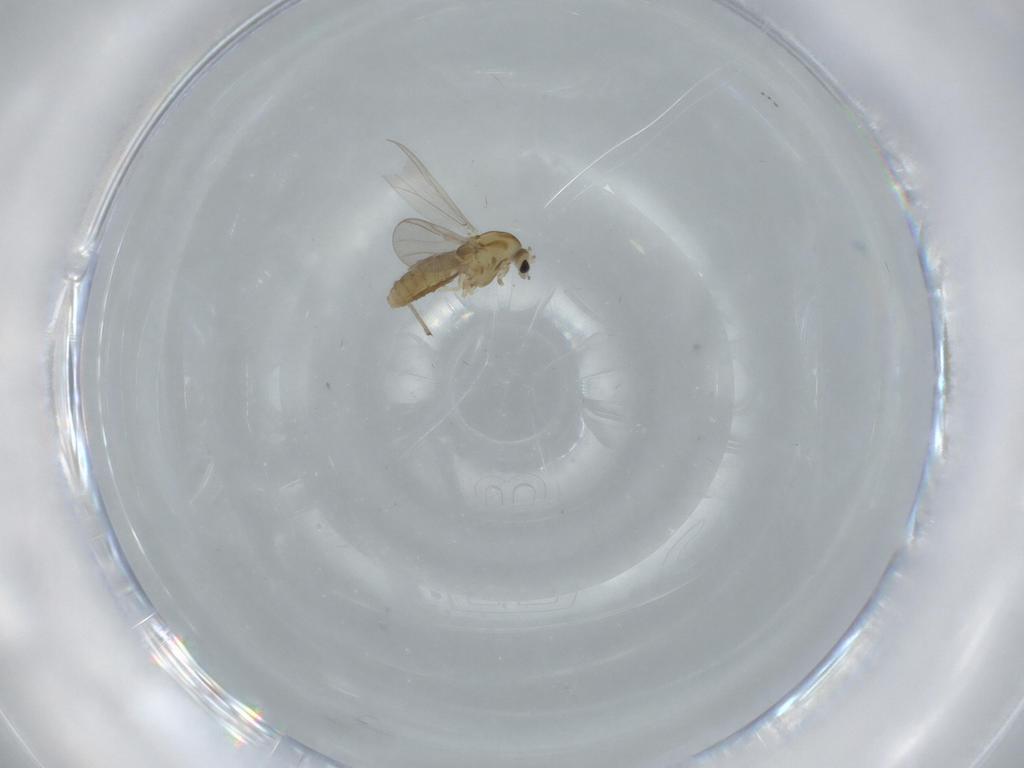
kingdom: Animalia
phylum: Arthropoda
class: Insecta
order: Diptera
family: Chironomidae
